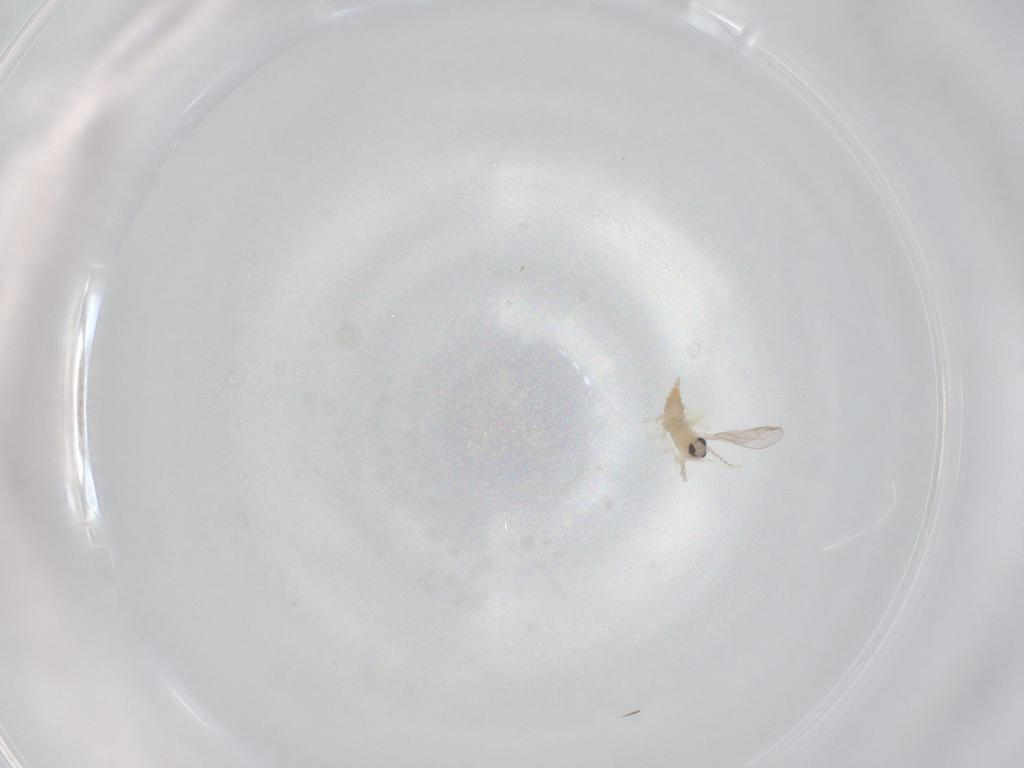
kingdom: Animalia
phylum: Arthropoda
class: Insecta
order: Diptera
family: Cecidomyiidae
